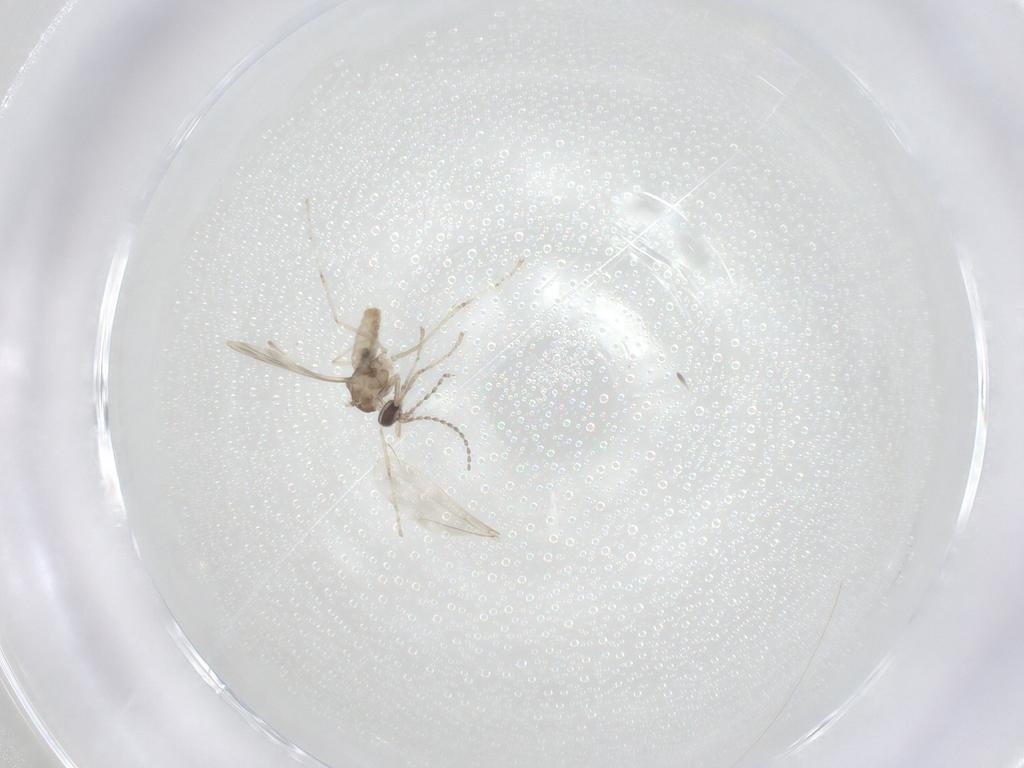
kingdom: Animalia
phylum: Arthropoda
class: Insecta
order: Diptera
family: Cecidomyiidae
